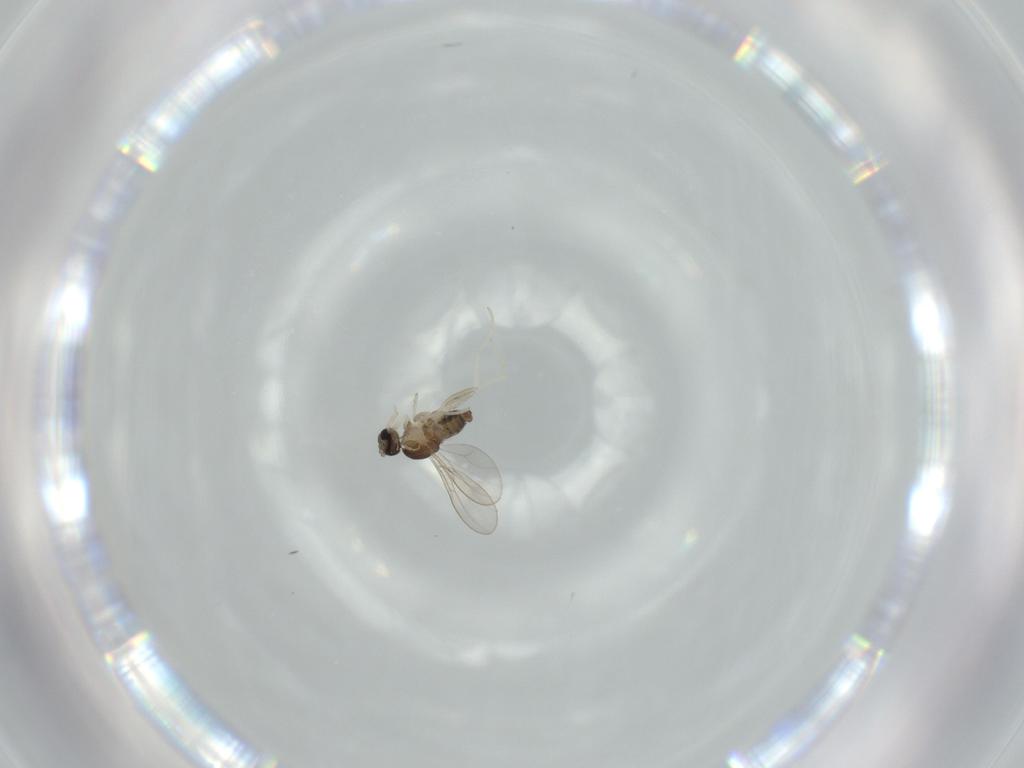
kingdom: Animalia
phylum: Arthropoda
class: Insecta
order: Diptera
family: Cecidomyiidae
